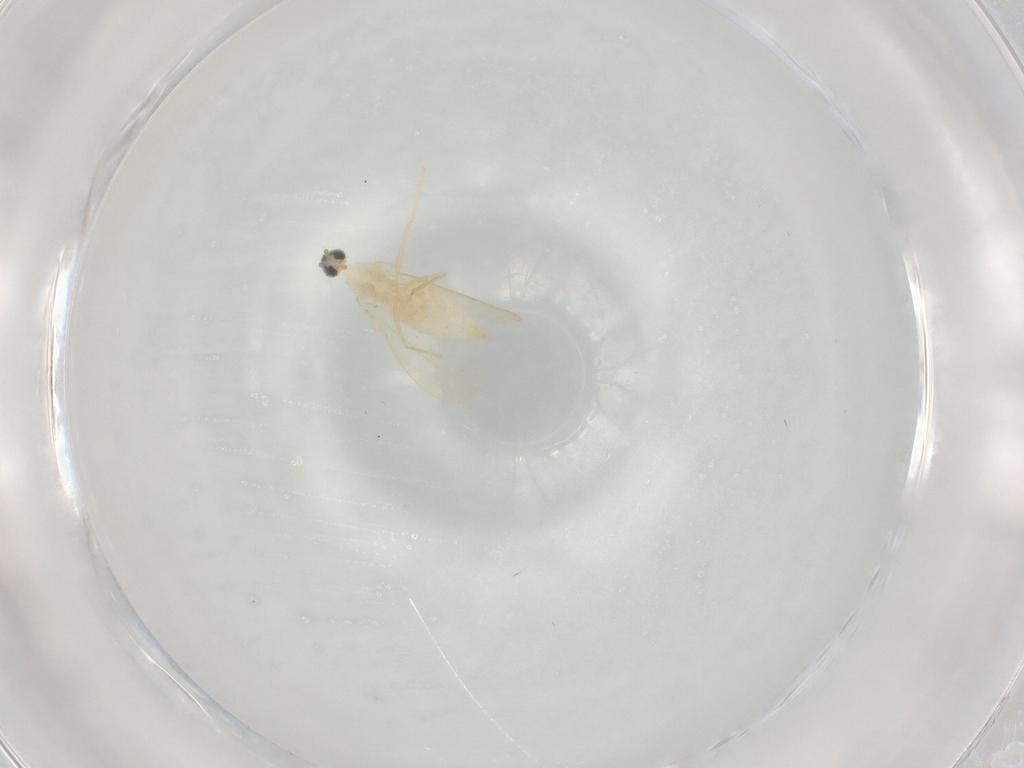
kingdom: Animalia
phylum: Arthropoda
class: Insecta
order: Diptera
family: Cecidomyiidae
